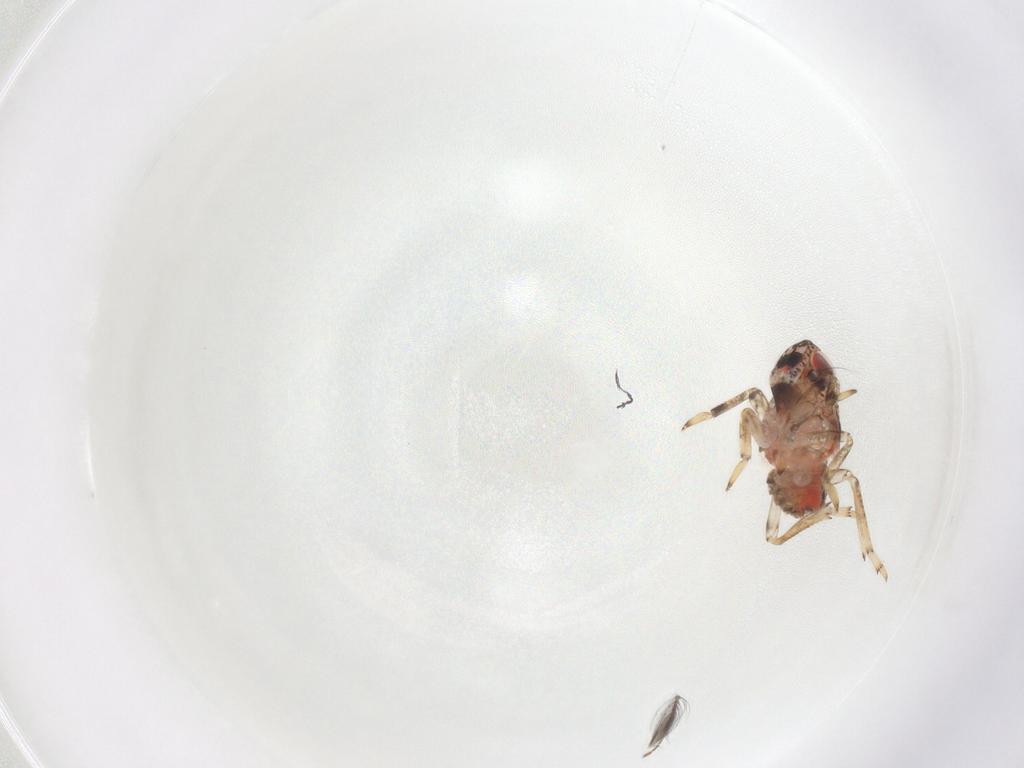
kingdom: Animalia
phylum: Arthropoda
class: Insecta
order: Hemiptera
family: Issidae
